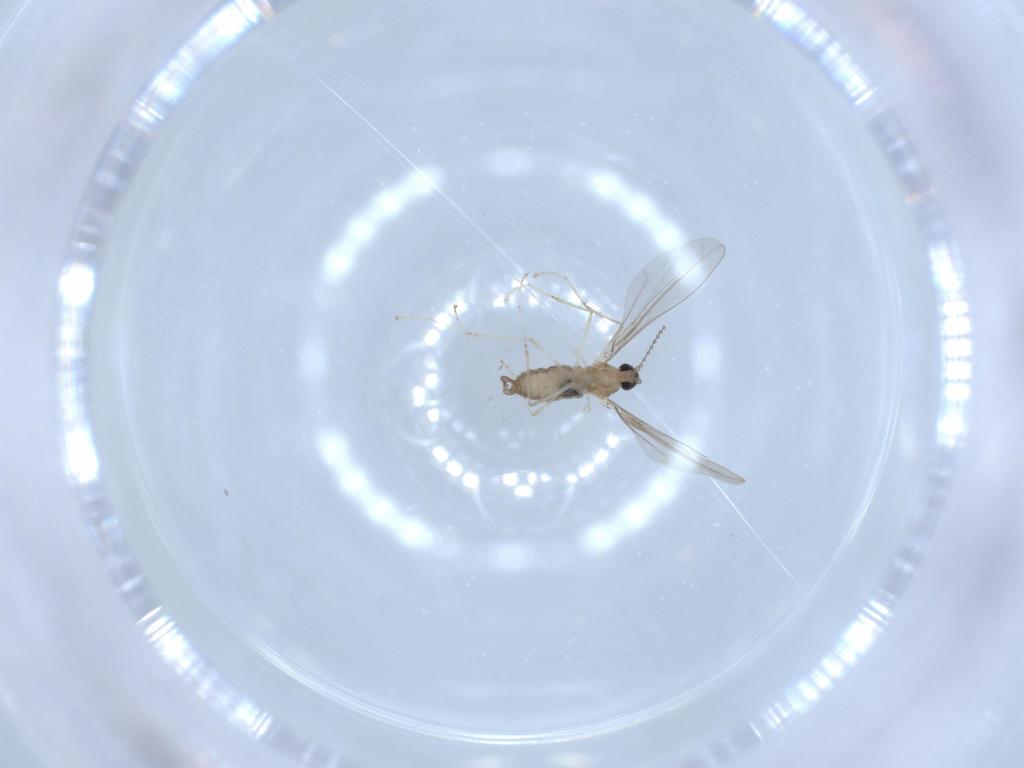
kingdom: Animalia
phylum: Arthropoda
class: Insecta
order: Diptera
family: Cecidomyiidae
